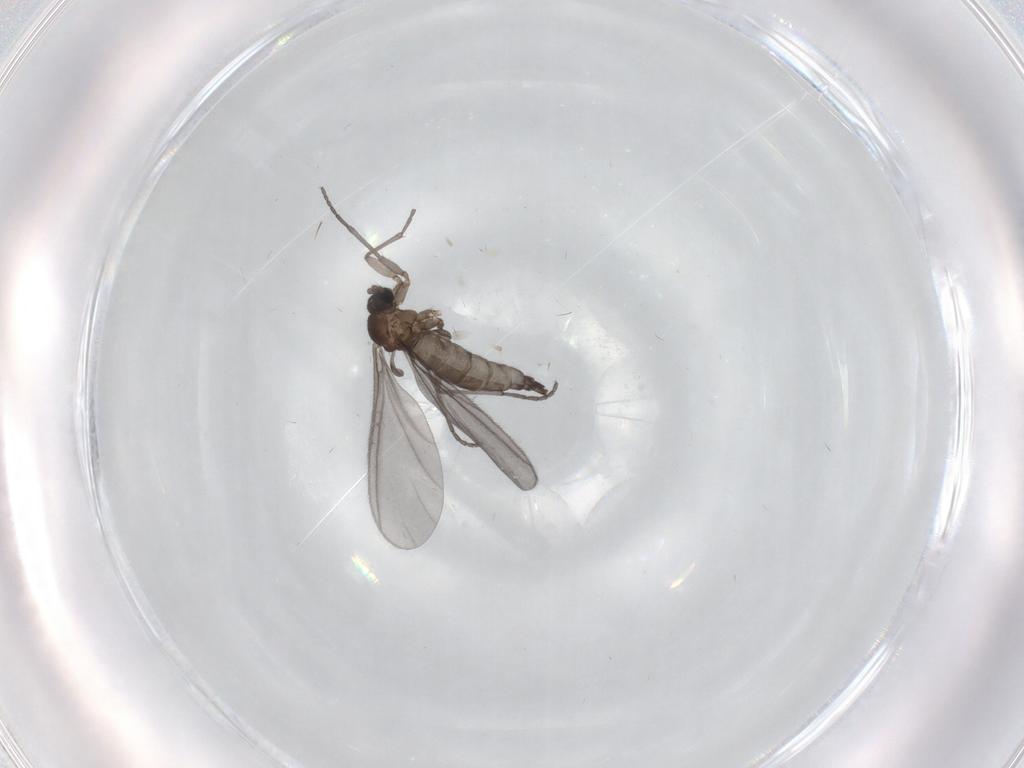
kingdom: Animalia
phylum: Arthropoda
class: Insecta
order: Diptera
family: Sciaridae
